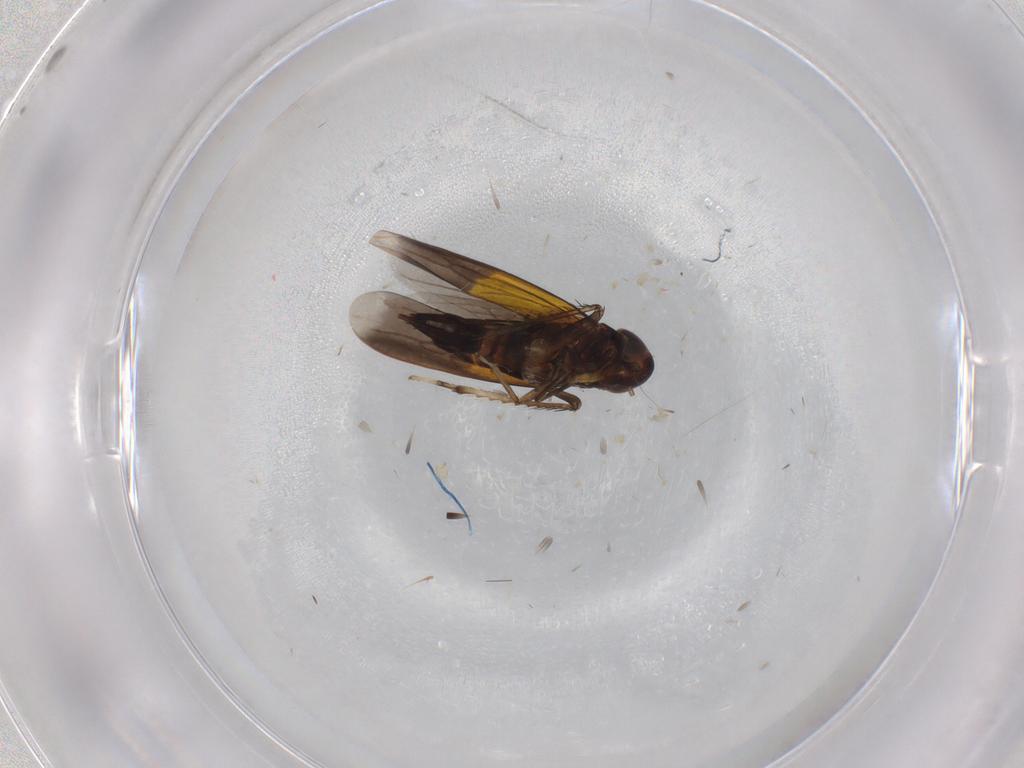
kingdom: Animalia
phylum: Arthropoda
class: Insecta
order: Hemiptera
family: Cicadellidae
